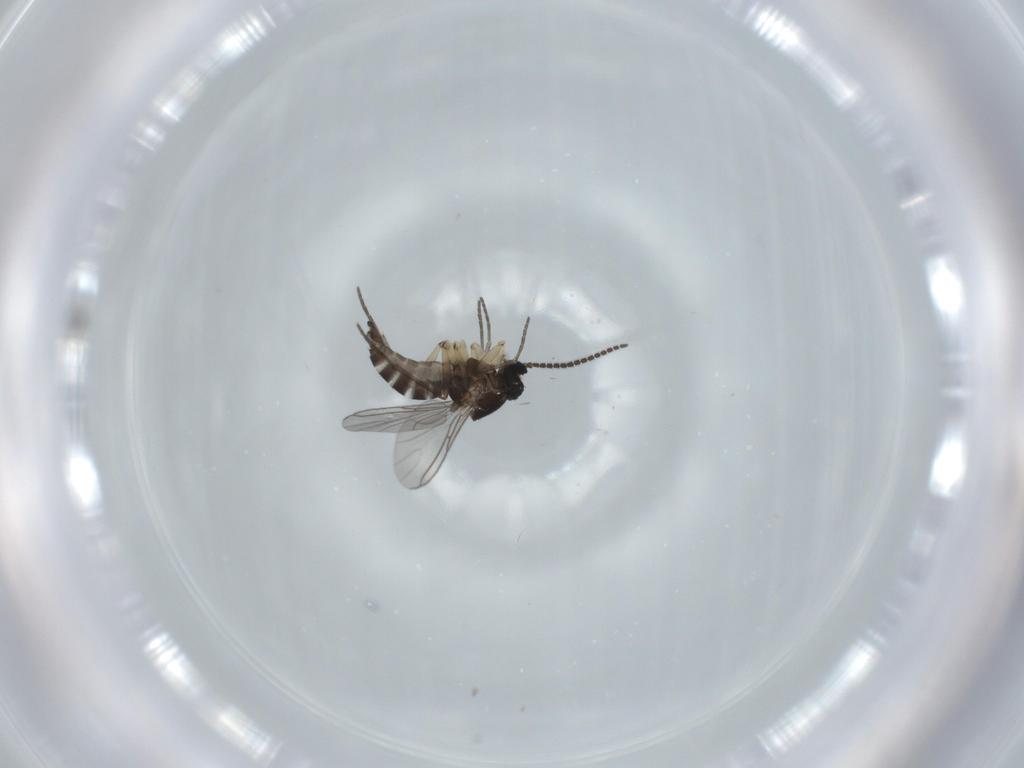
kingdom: Animalia
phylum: Arthropoda
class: Insecta
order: Diptera
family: Sciaridae
